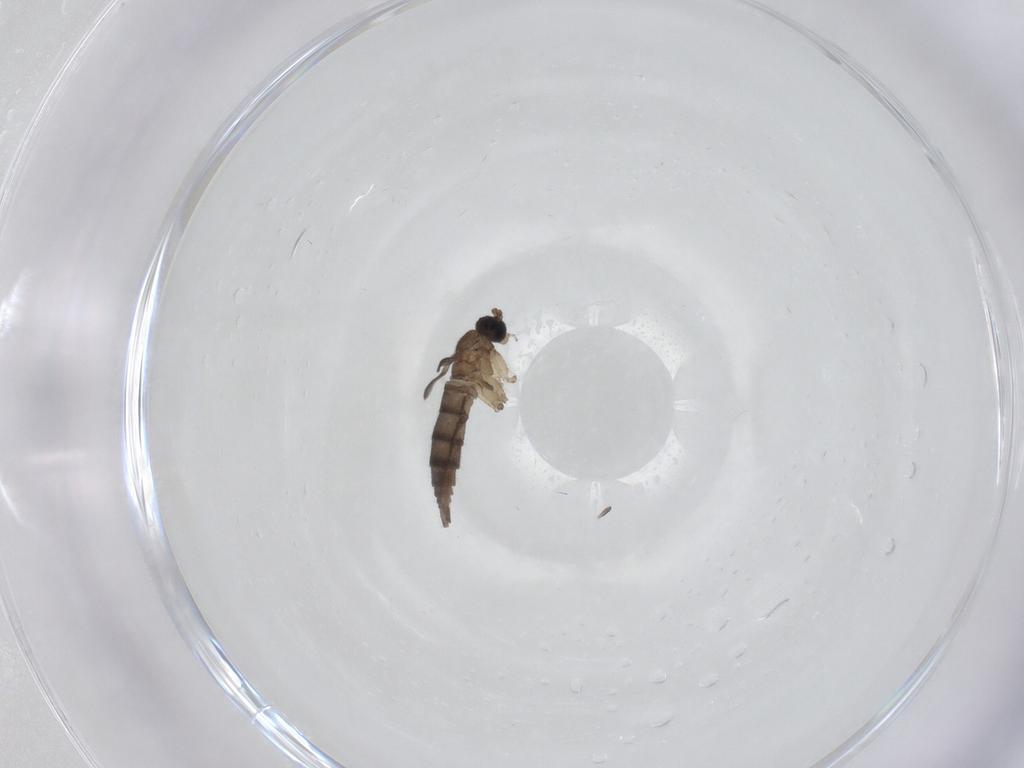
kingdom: Animalia
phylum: Arthropoda
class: Insecta
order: Diptera
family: Sciaridae
